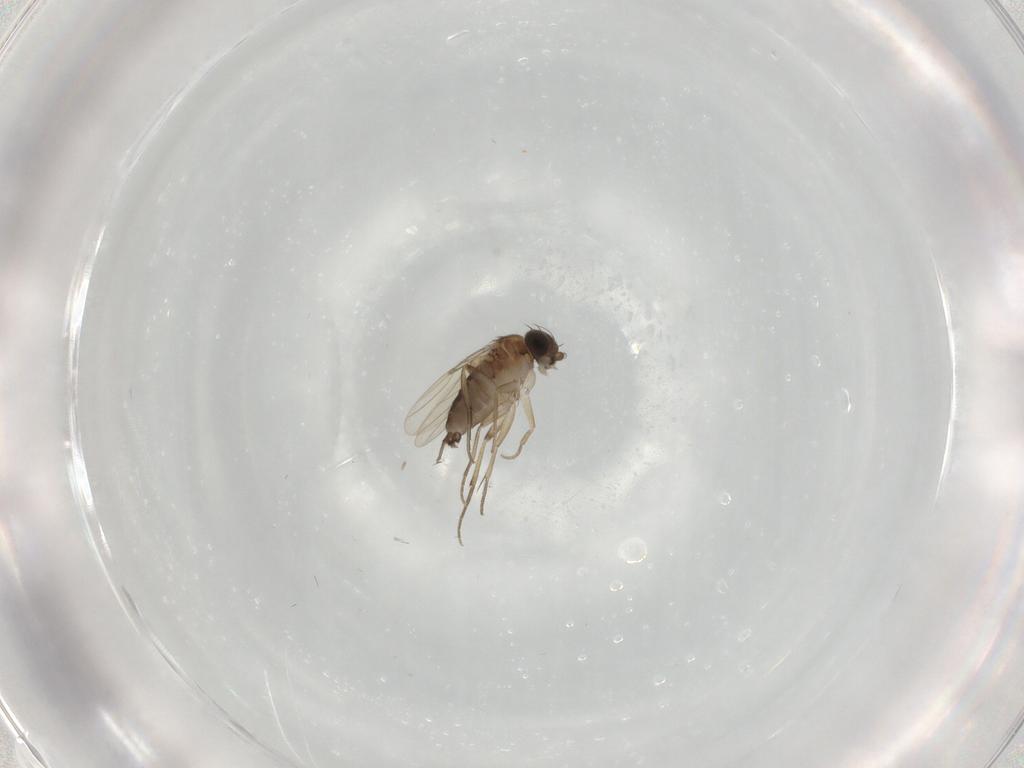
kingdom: Animalia
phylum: Arthropoda
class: Insecta
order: Diptera
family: Phoridae
